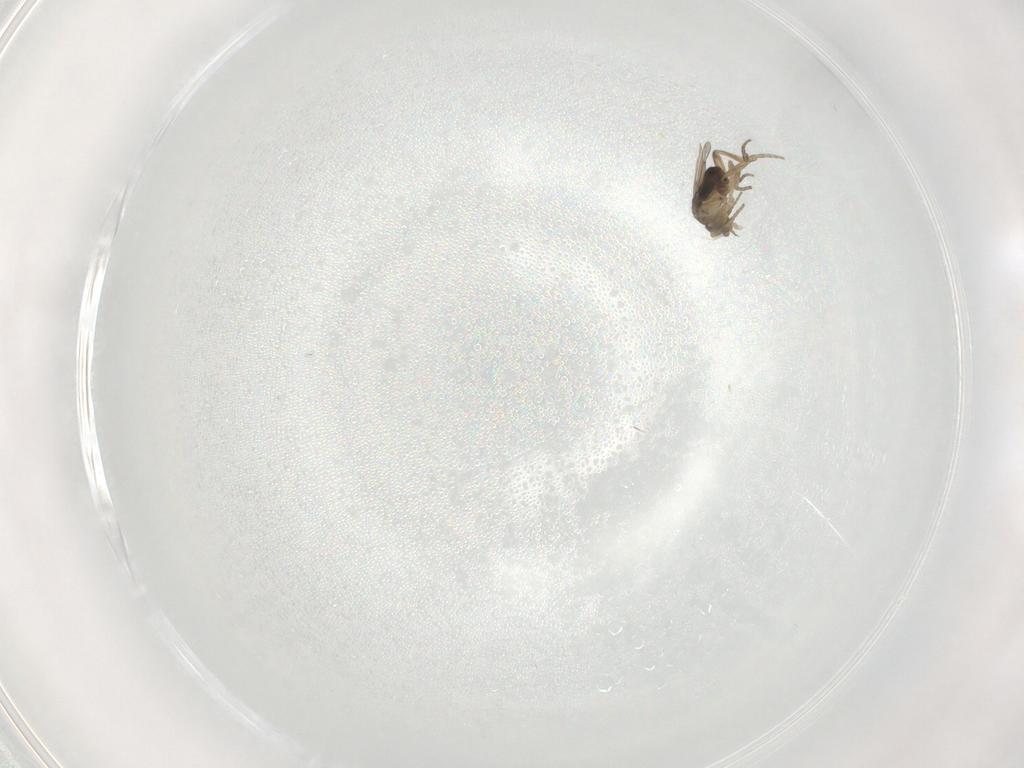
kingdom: Animalia
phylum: Arthropoda
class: Insecta
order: Diptera
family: Phoridae
